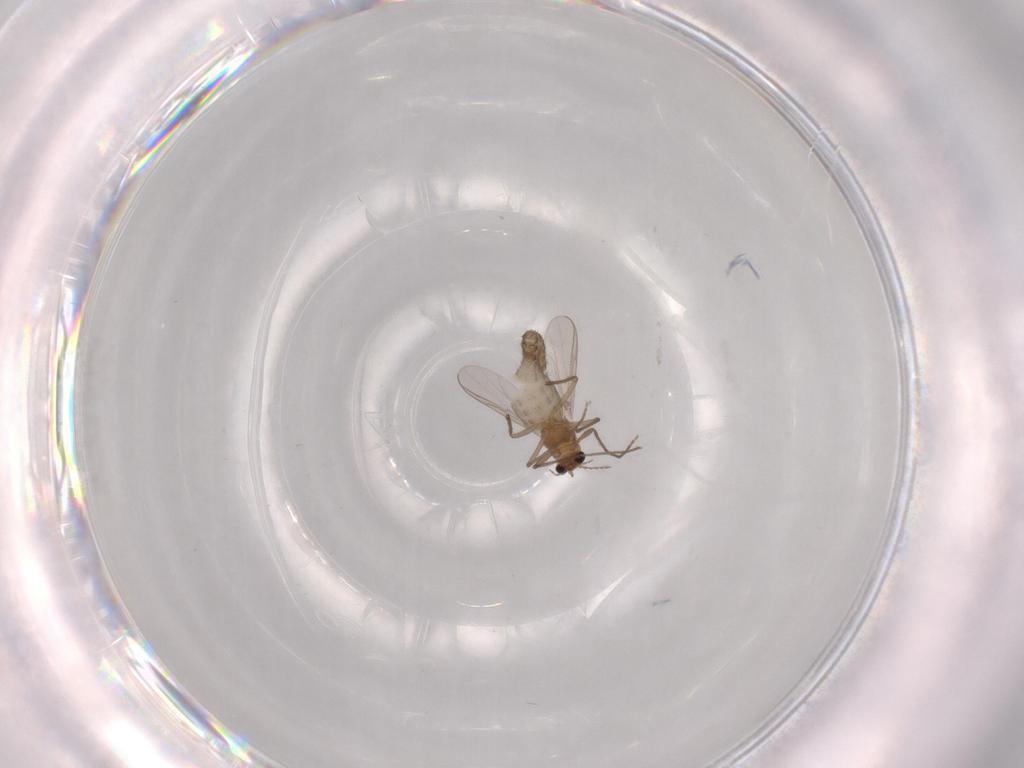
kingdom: Animalia
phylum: Arthropoda
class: Insecta
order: Diptera
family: Chironomidae
